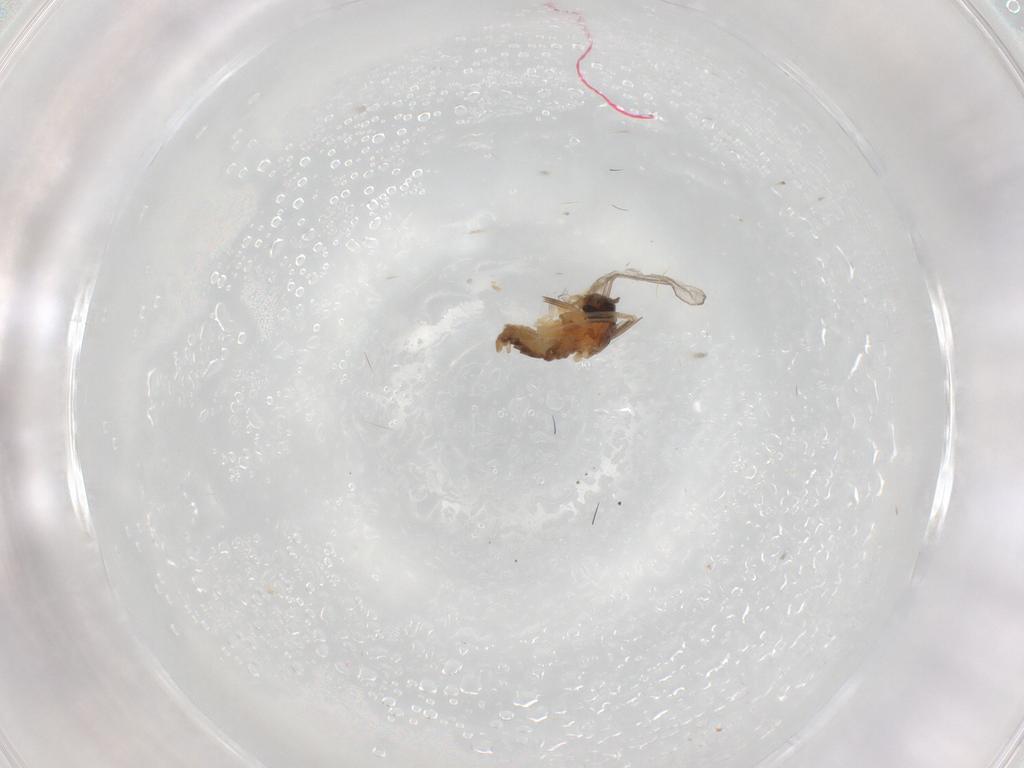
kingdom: Animalia
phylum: Arthropoda
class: Insecta
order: Diptera
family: Cecidomyiidae
